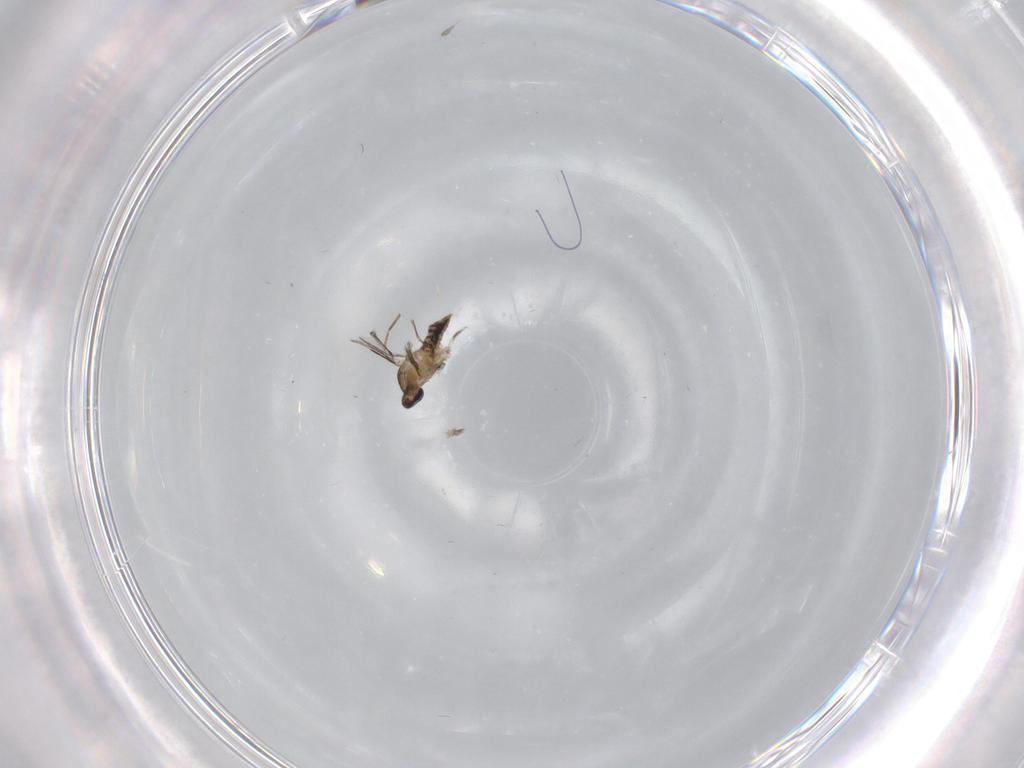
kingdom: Animalia
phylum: Arthropoda
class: Insecta
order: Diptera
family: Cecidomyiidae
